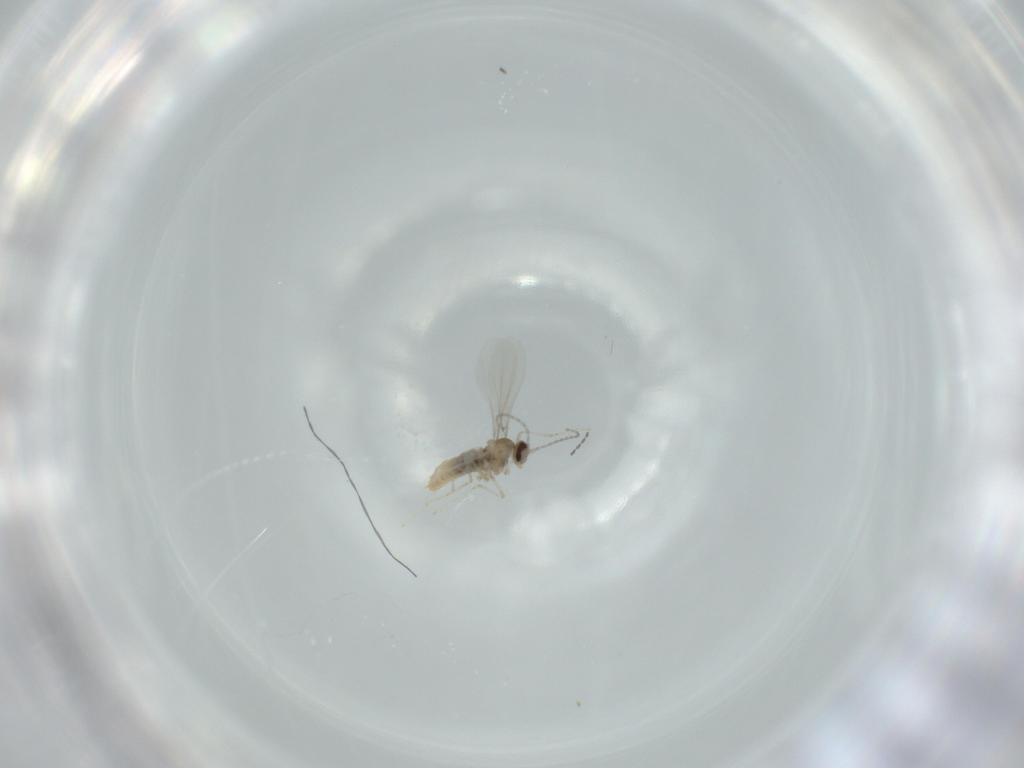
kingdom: Animalia
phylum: Arthropoda
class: Insecta
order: Diptera
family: Cecidomyiidae
